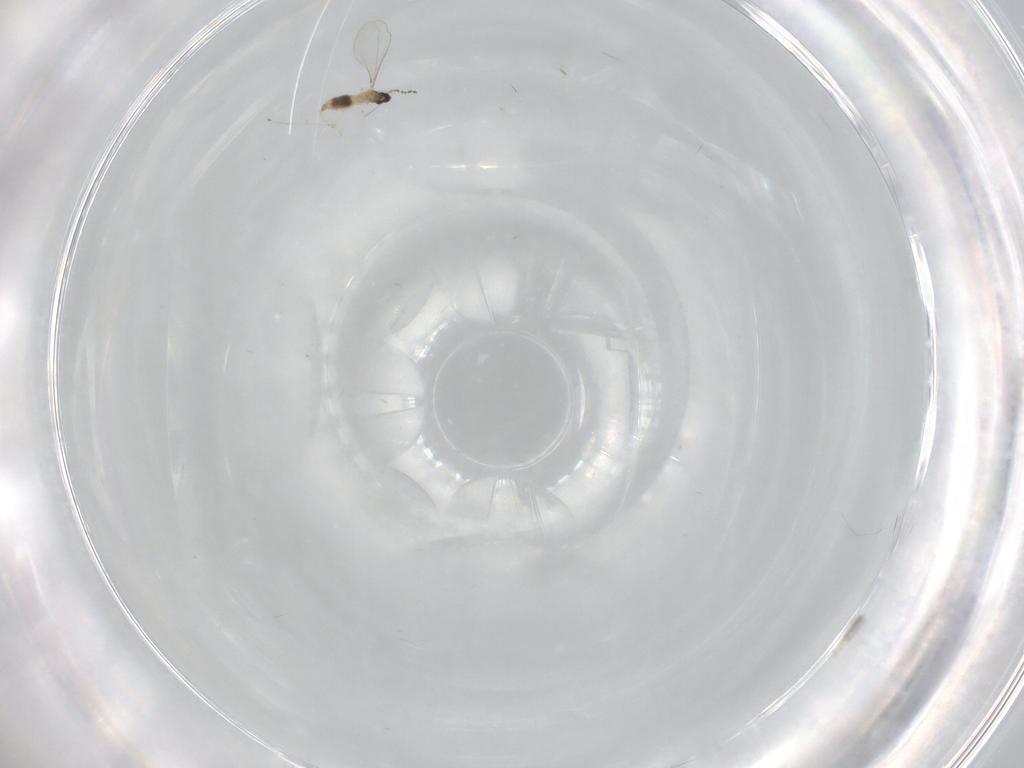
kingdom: Animalia
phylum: Arthropoda
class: Insecta
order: Diptera
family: Cecidomyiidae
